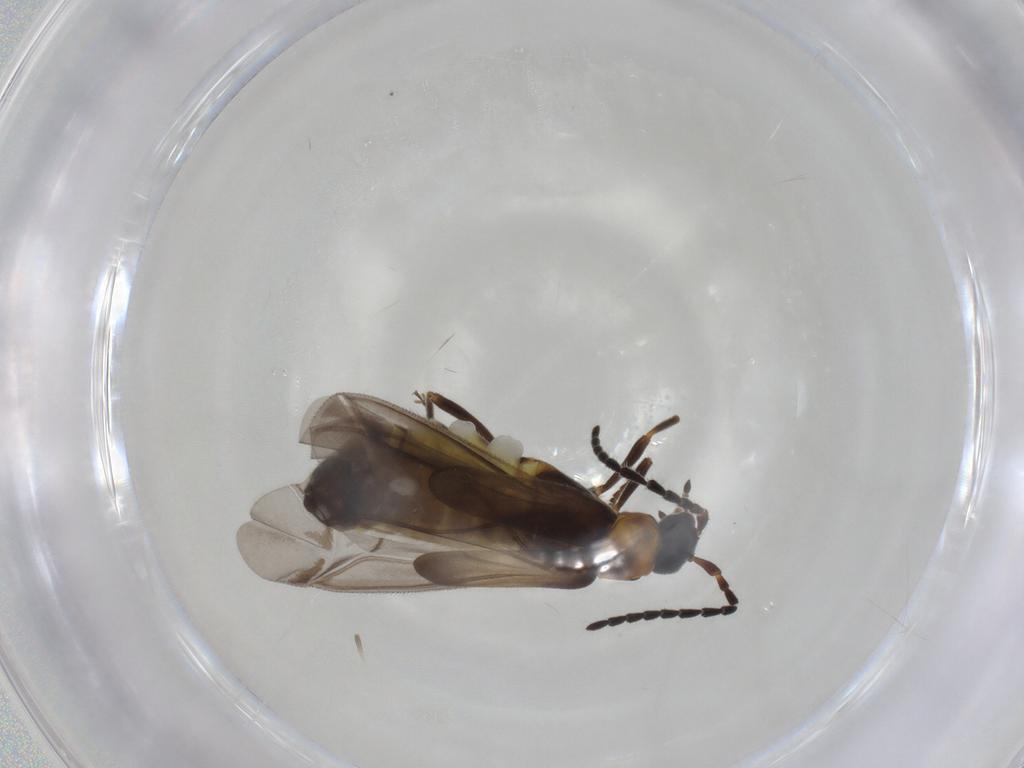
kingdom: Animalia
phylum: Arthropoda
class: Insecta
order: Coleoptera
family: Cantharidae
